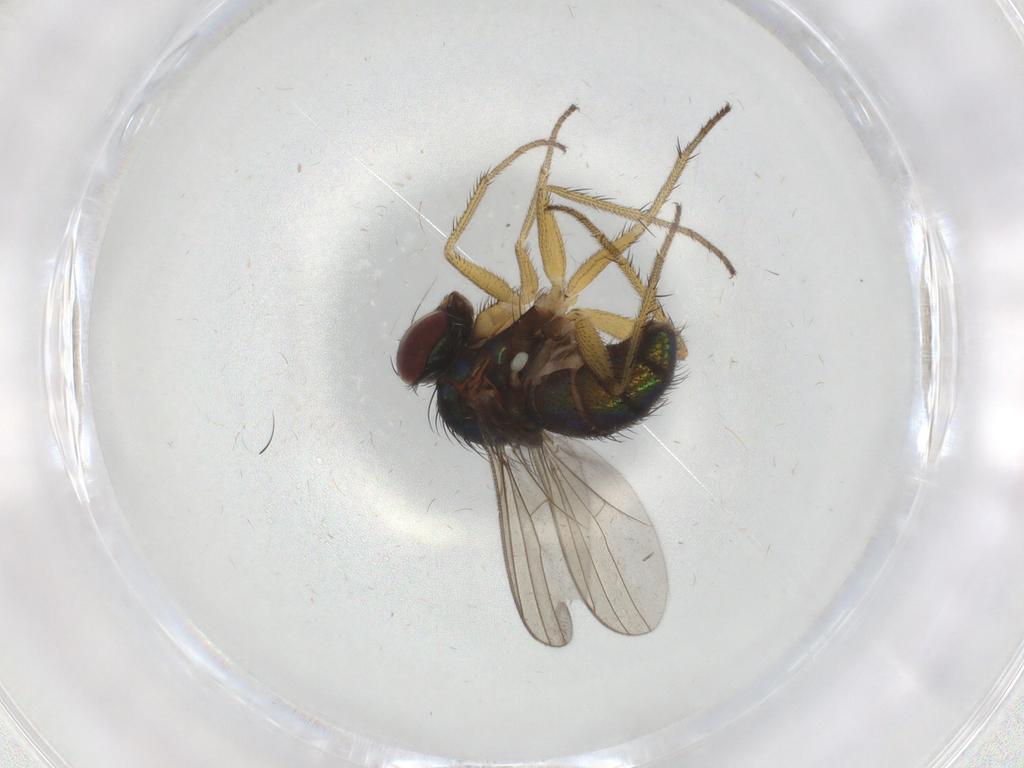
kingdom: Animalia
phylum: Arthropoda
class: Insecta
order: Diptera
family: Dolichopodidae
